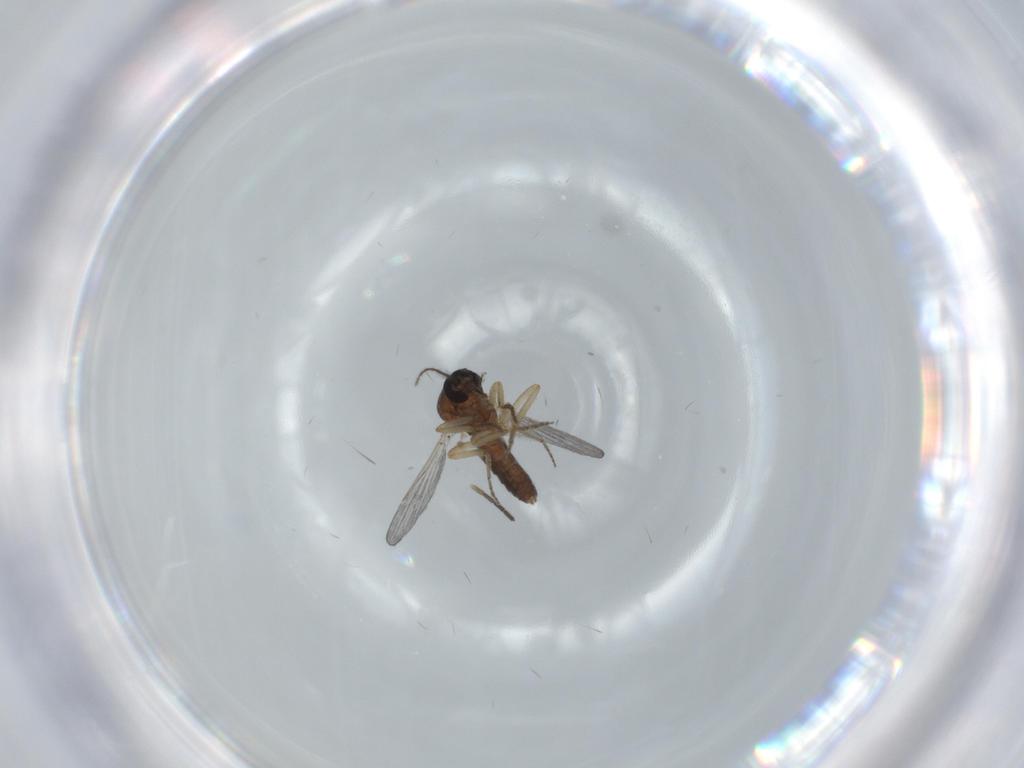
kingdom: Animalia
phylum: Arthropoda
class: Insecta
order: Diptera
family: Ceratopogonidae
